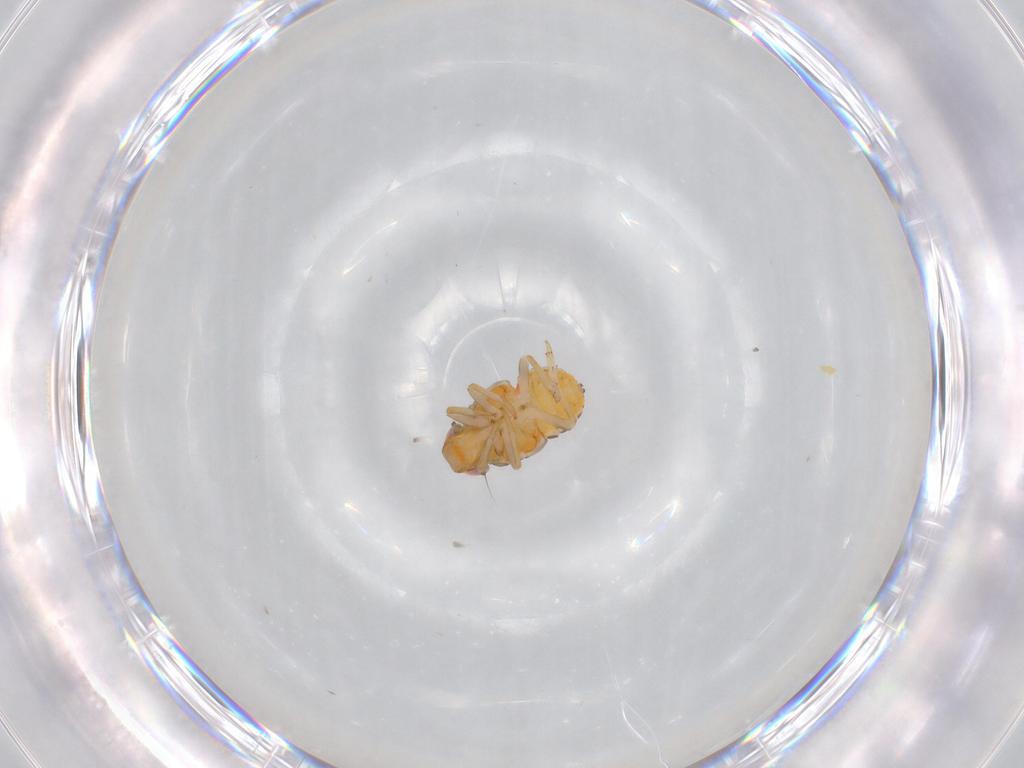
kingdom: Animalia
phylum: Arthropoda
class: Insecta
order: Hemiptera
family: Issidae
